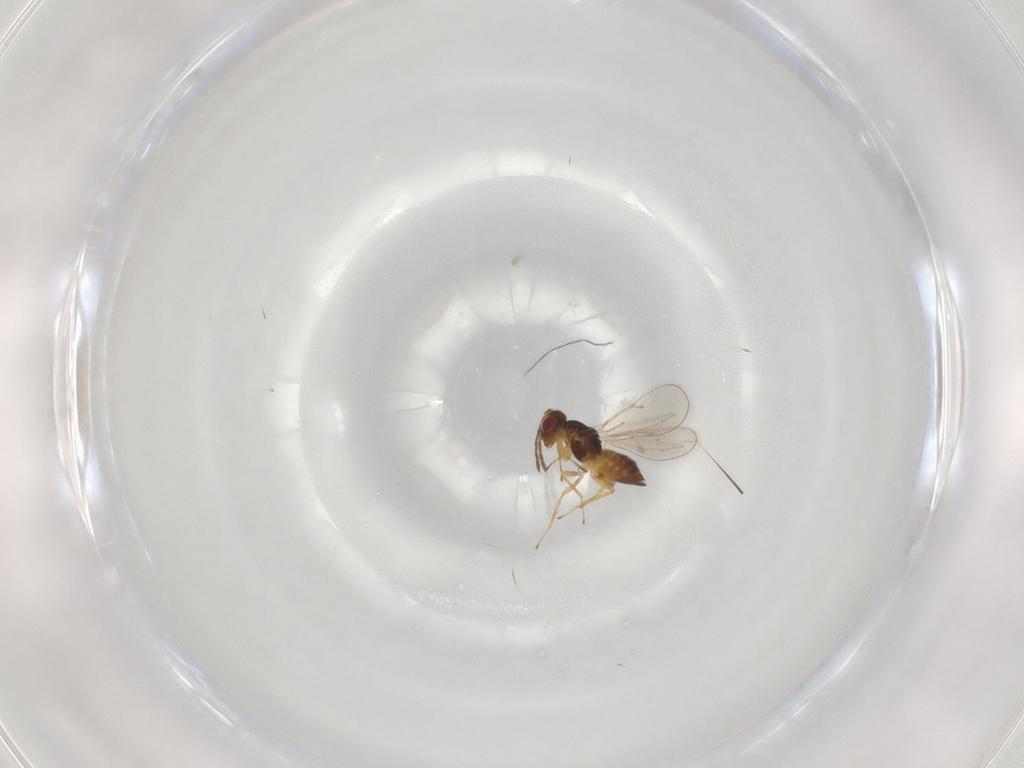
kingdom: Animalia
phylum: Arthropoda
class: Insecta
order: Hymenoptera
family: Eulophidae
